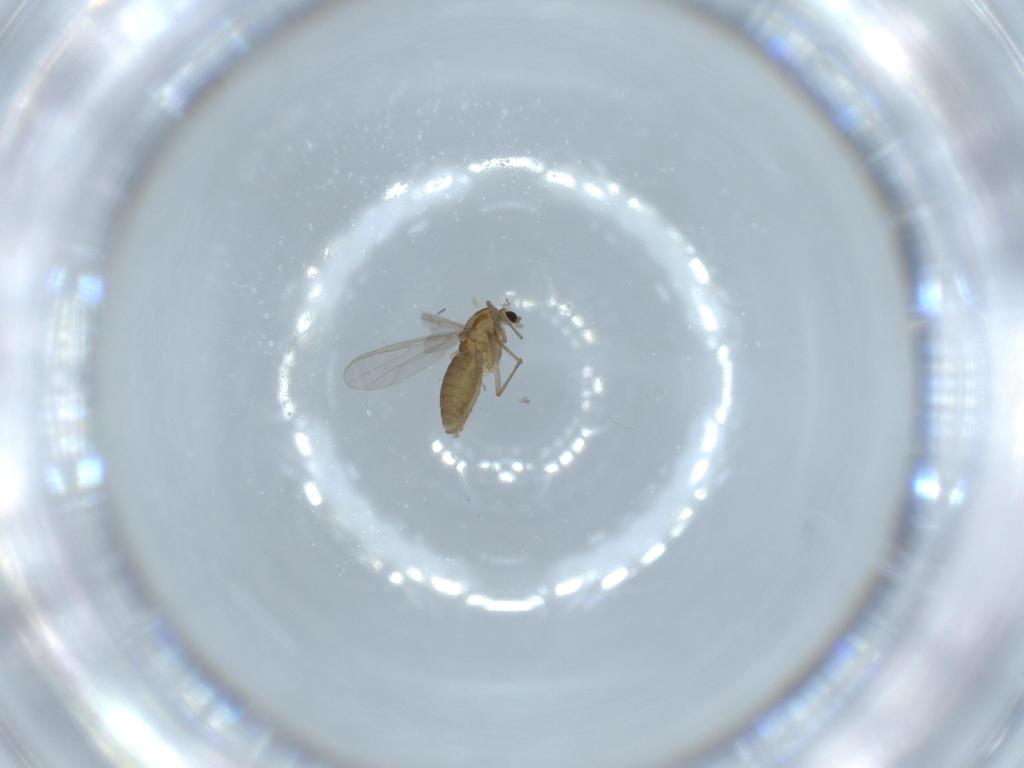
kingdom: Animalia
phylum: Arthropoda
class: Insecta
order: Diptera
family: Chironomidae
